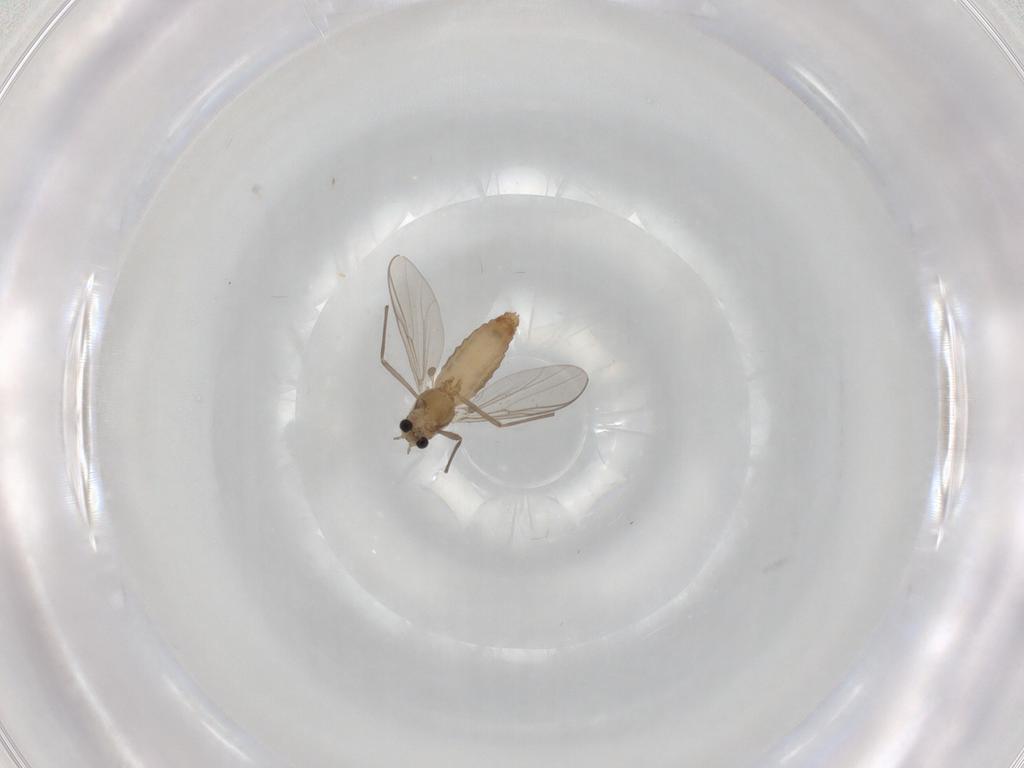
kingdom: Animalia
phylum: Arthropoda
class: Insecta
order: Diptera
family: Chironomidae
